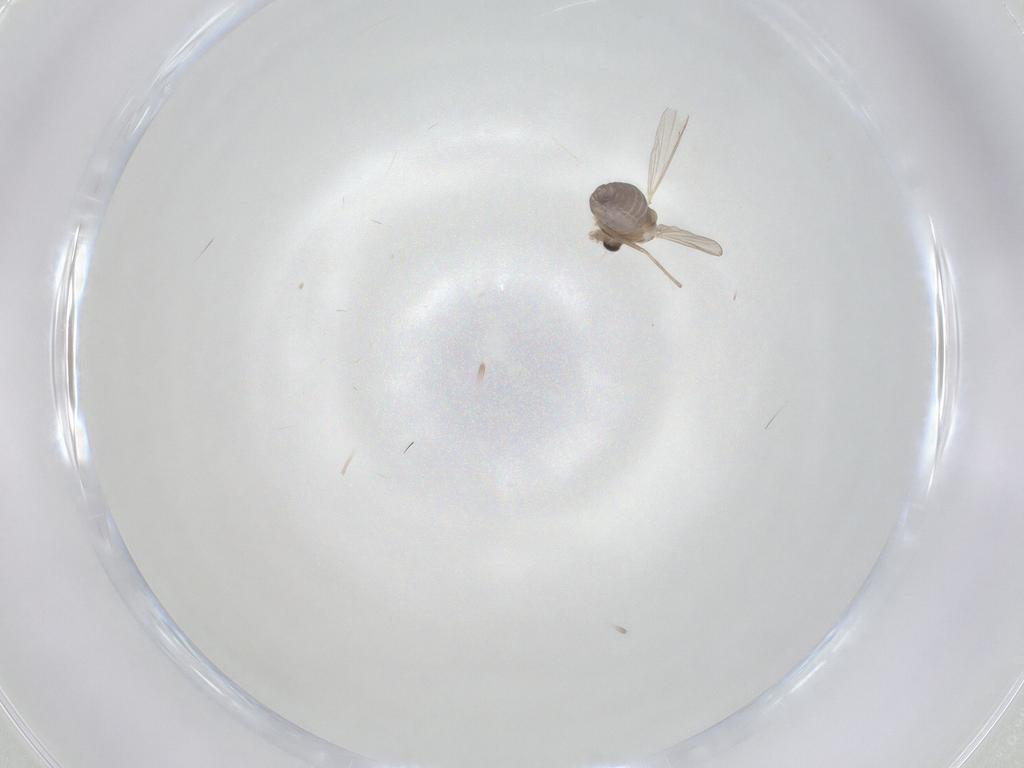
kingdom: Animalia
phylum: Arthropoda
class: Insecta
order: Diptera
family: Chironomidae
